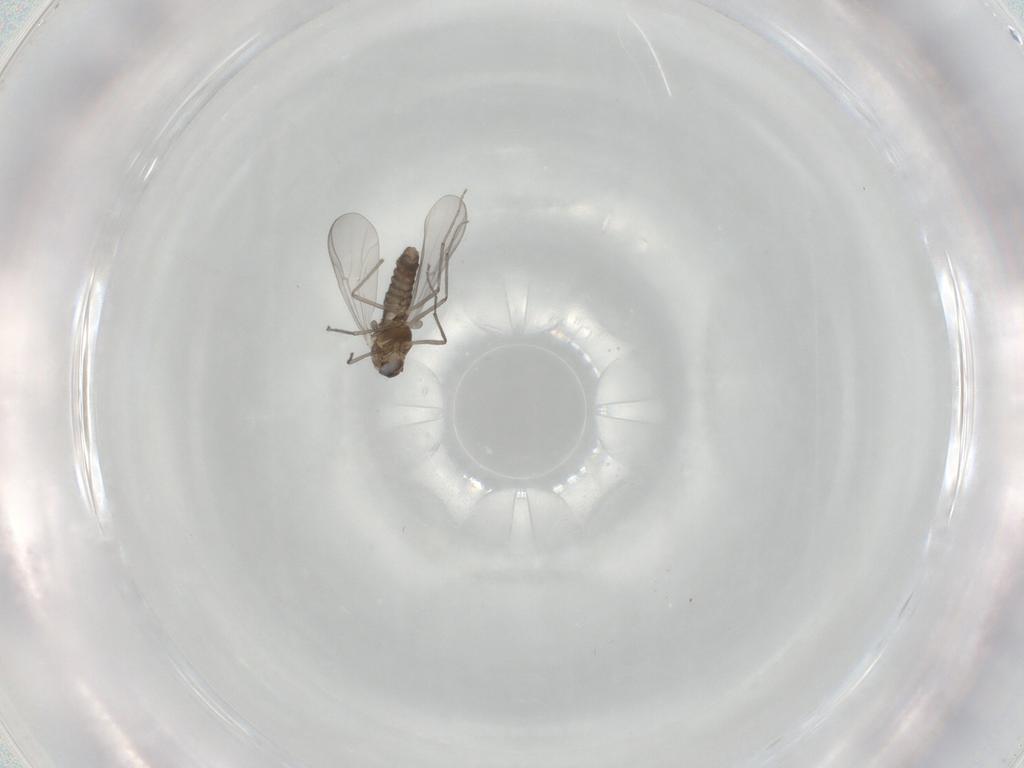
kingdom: Animalia
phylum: Arthropoda
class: Insecta
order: Diptera
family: Chironomidae
